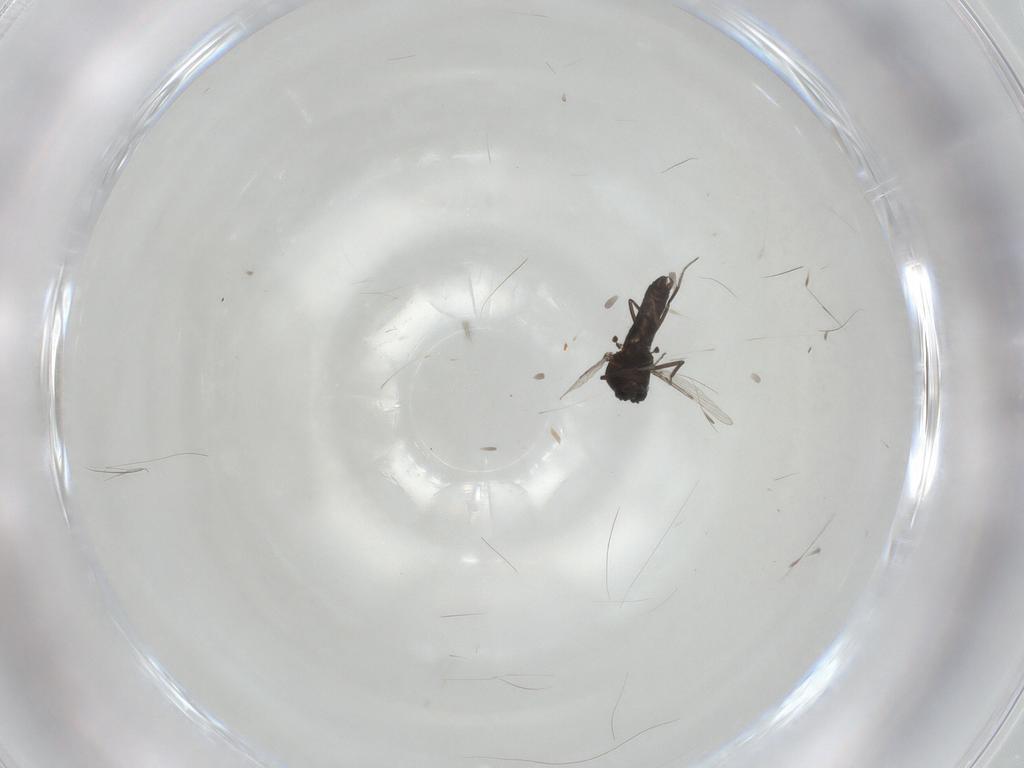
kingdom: Animalia
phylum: Arthropoda
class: Insecta
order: Diptera
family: Ceratopogonidae
